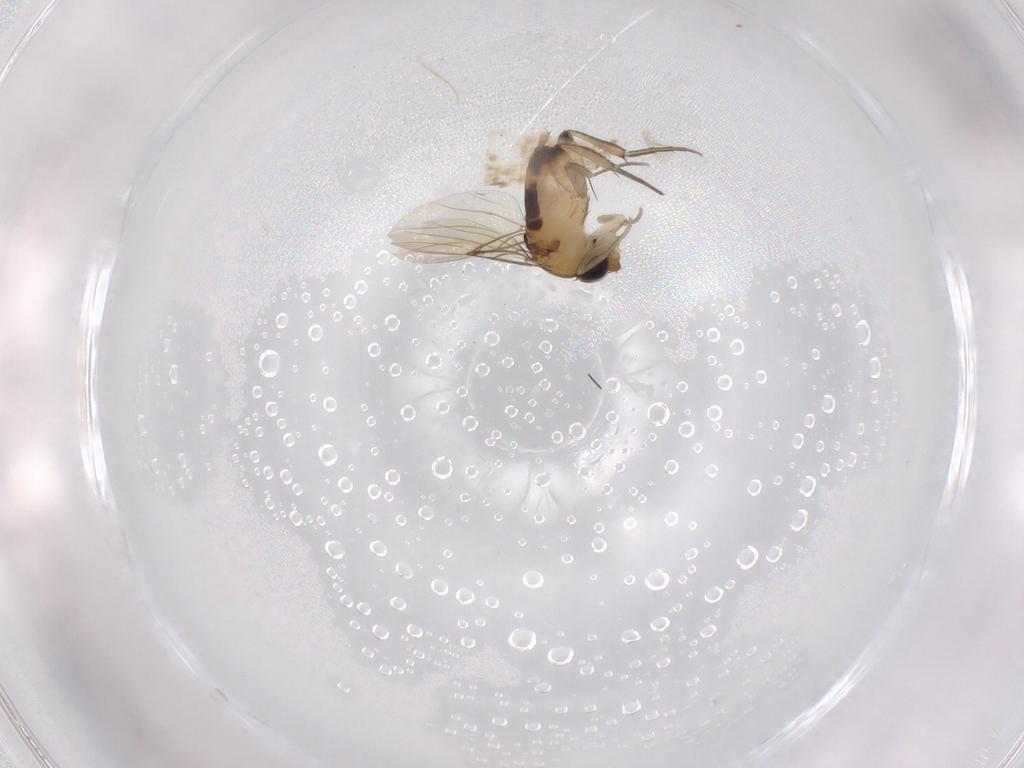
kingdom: Animalia
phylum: Arthropoda
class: Insecta
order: Diptera
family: Phoridae
